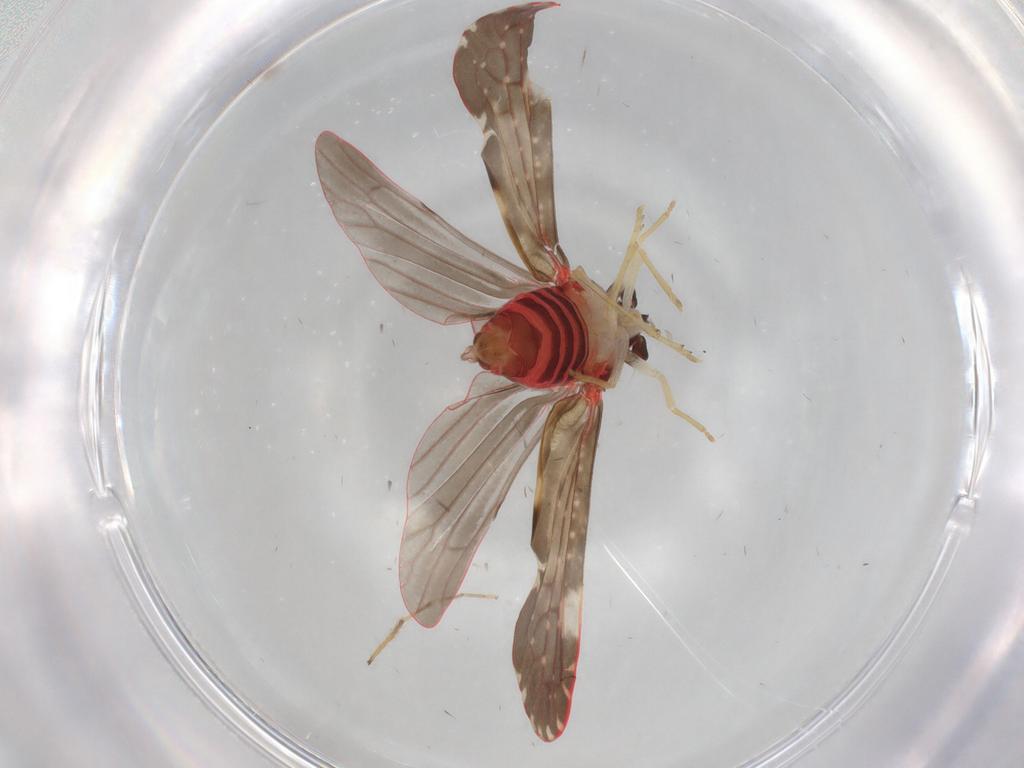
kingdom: Animalia
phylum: Arthropoda
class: Insecta
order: Hemiptera
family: Derbidae
